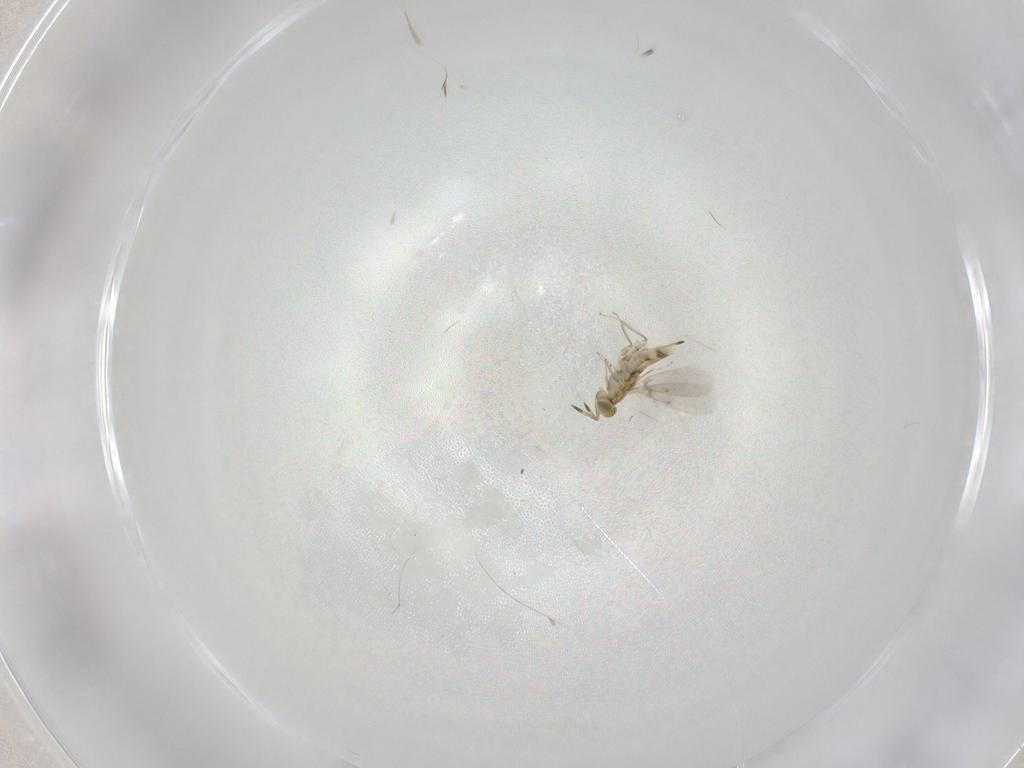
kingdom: Animalia
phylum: Arthropoda
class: Insecta
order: Hymenoptera
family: Aphelinidae
